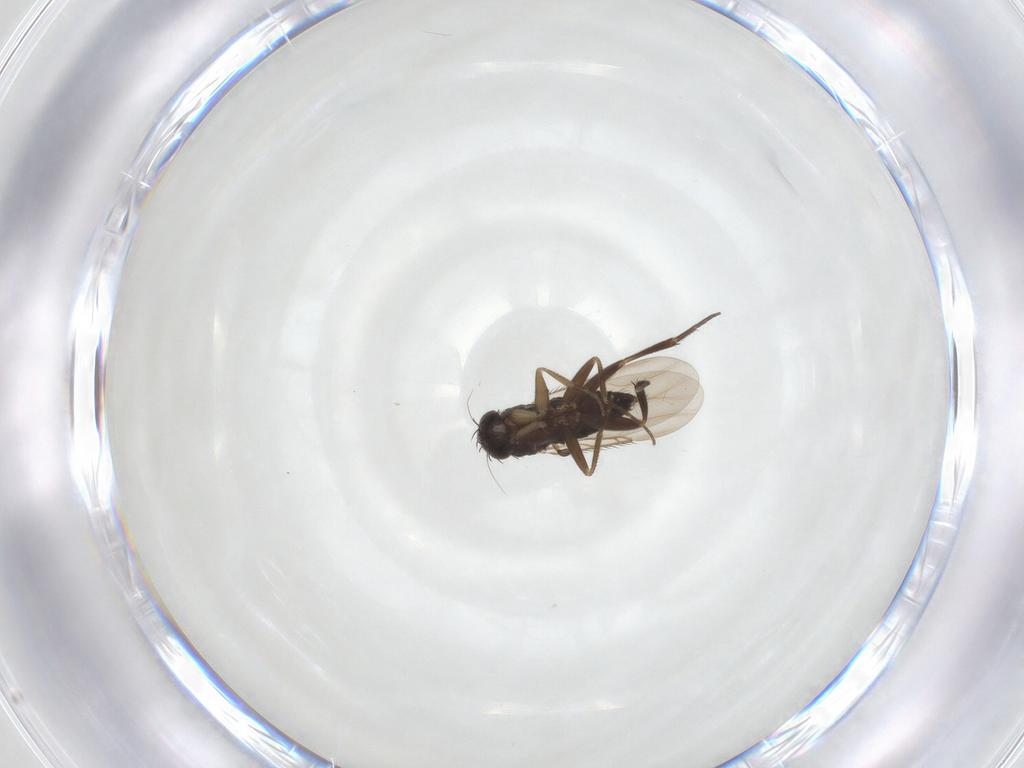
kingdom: Animalia
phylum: Arthropoda
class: Insecta
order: Diptera
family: Phoridae
